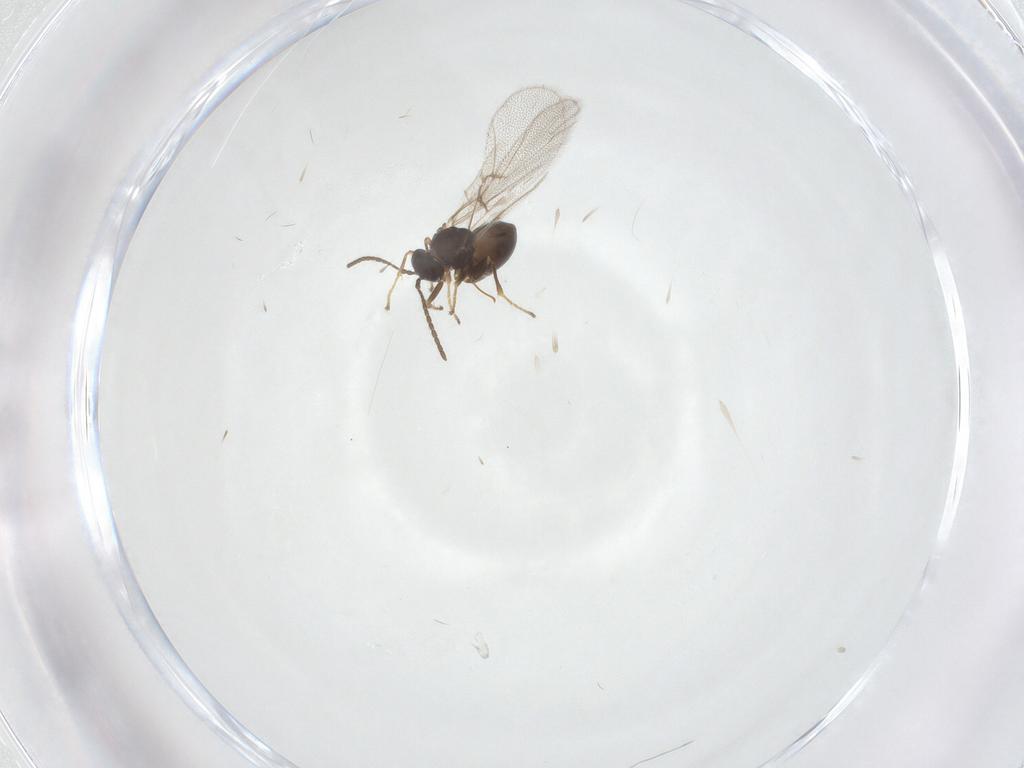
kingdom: Animalia
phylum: Arthropoda
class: Insecta
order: Hymenoptera
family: Cynipidae
